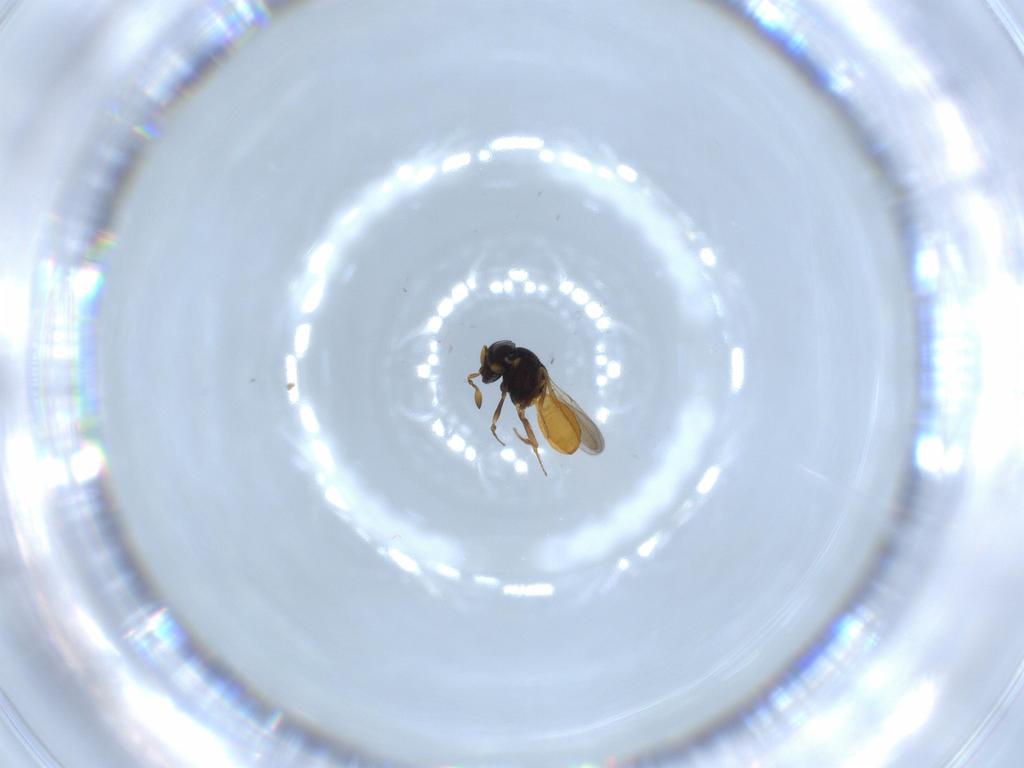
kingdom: Animalia
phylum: Arthropoda
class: Insecta
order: Hymenoptera
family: Scelionidae
